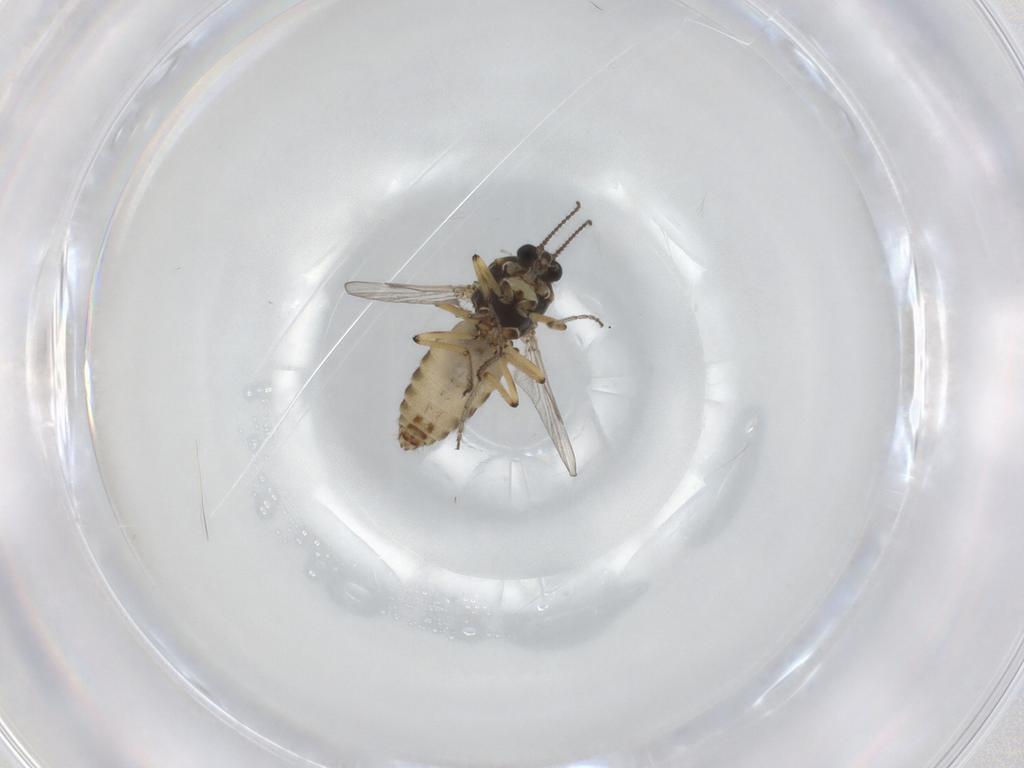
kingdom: Animalia
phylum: Arthropoda
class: Insecta
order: Diptera
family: Ceratopogonidae
